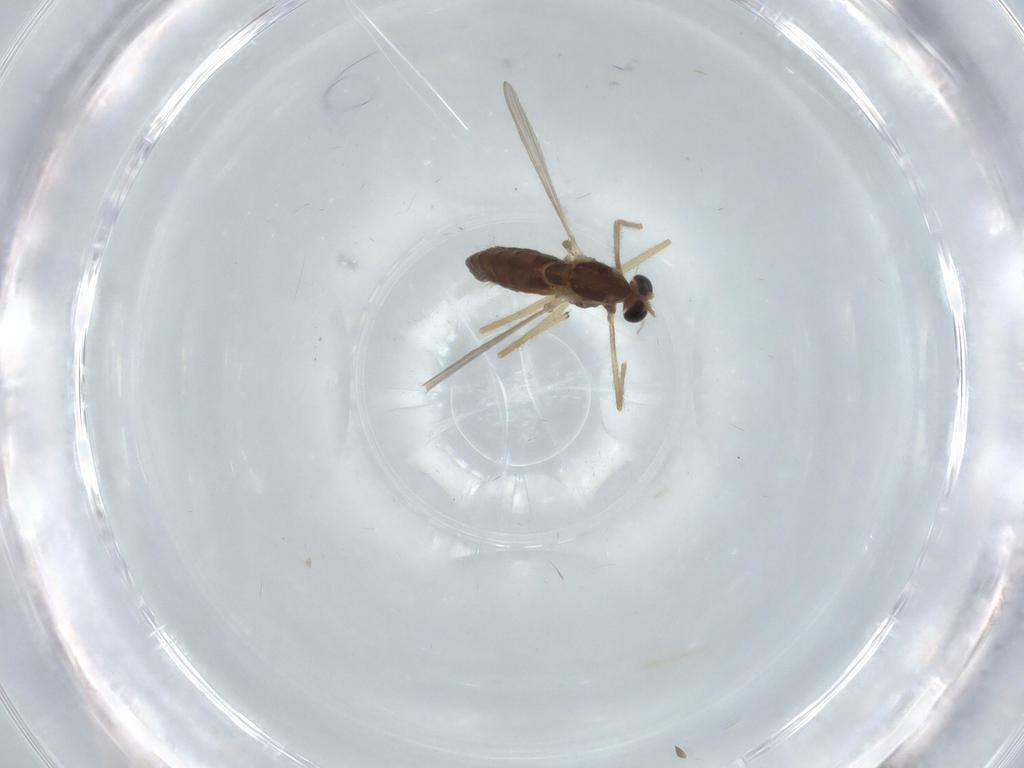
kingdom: Animalia
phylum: Arthropoda
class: Insecta
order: Diptera
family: Chironomidae
